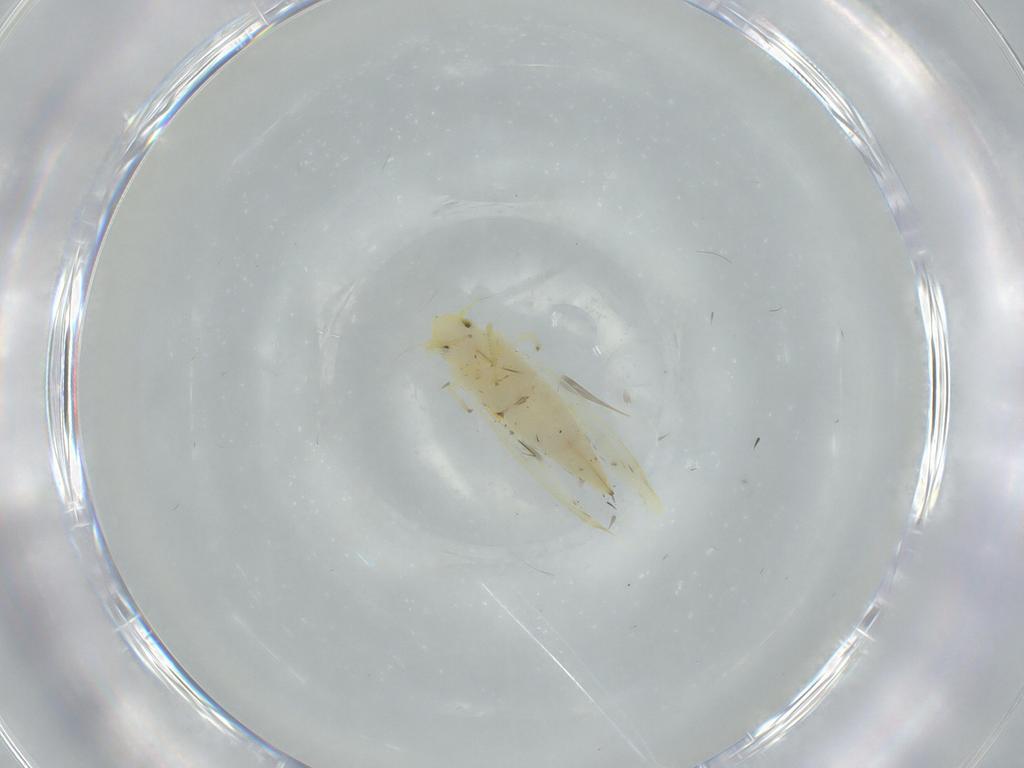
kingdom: Animalia
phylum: Arthropoda
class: Insecta
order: Hemiptera
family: Cicadellidae
